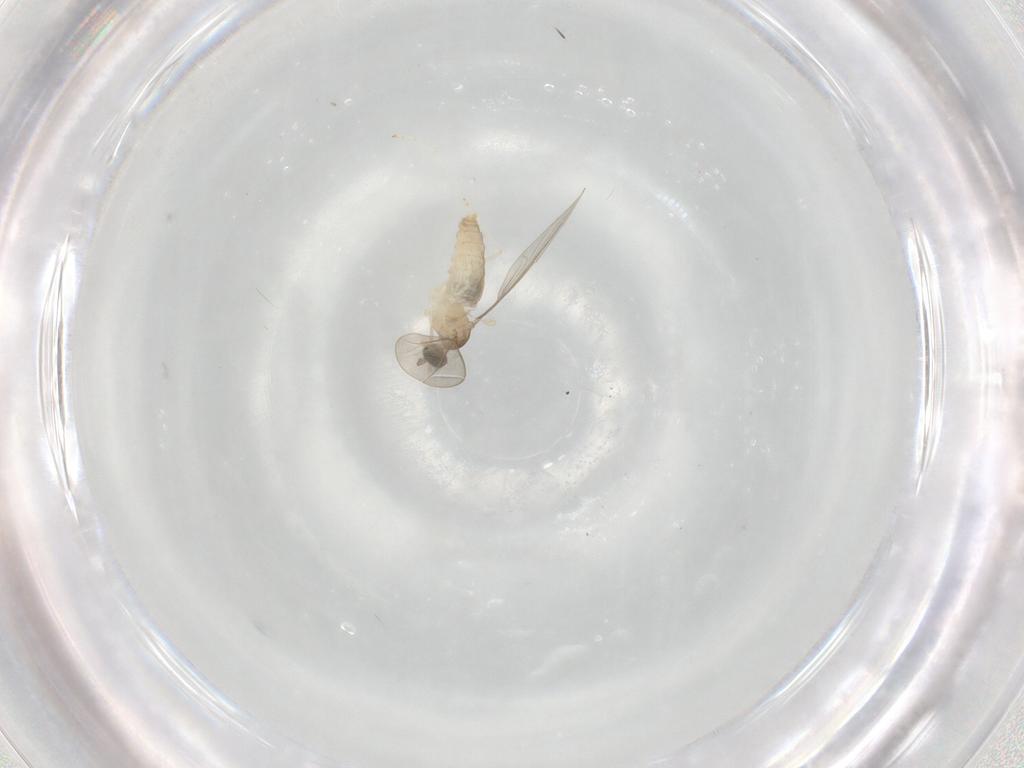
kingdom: Animalia
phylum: Arthropoda
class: Insecta
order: Diptera
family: Cecidomyiidae
